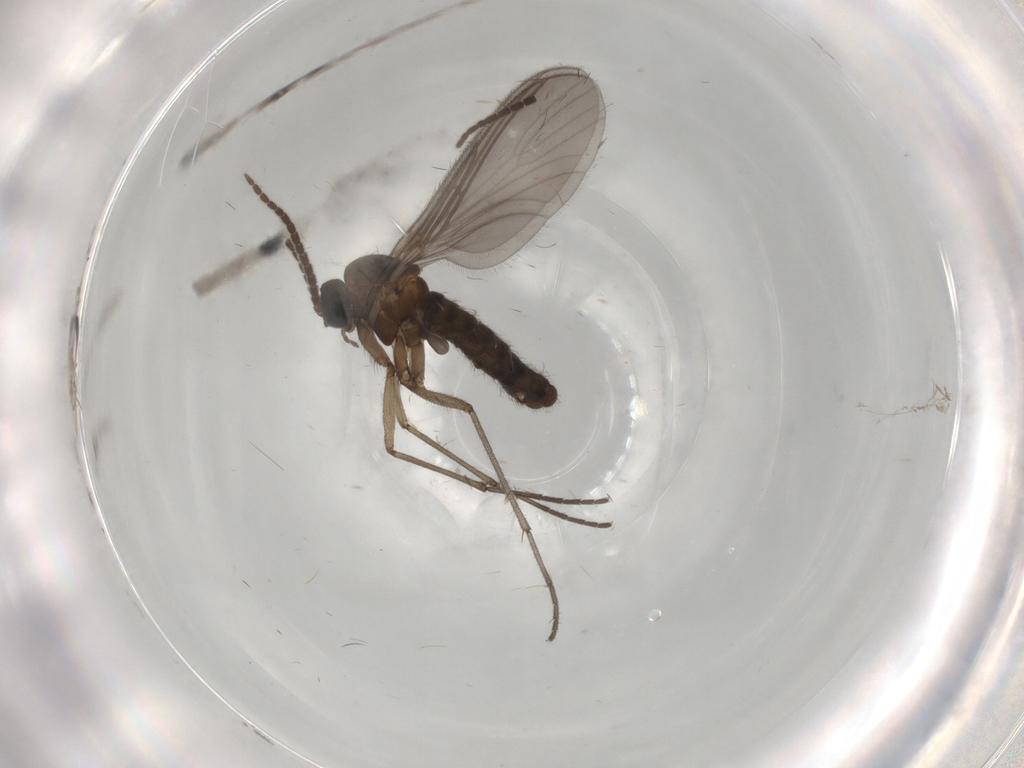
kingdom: Animalia
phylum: Arthropoda
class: Insecta
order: Diptera
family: Sciaridae
